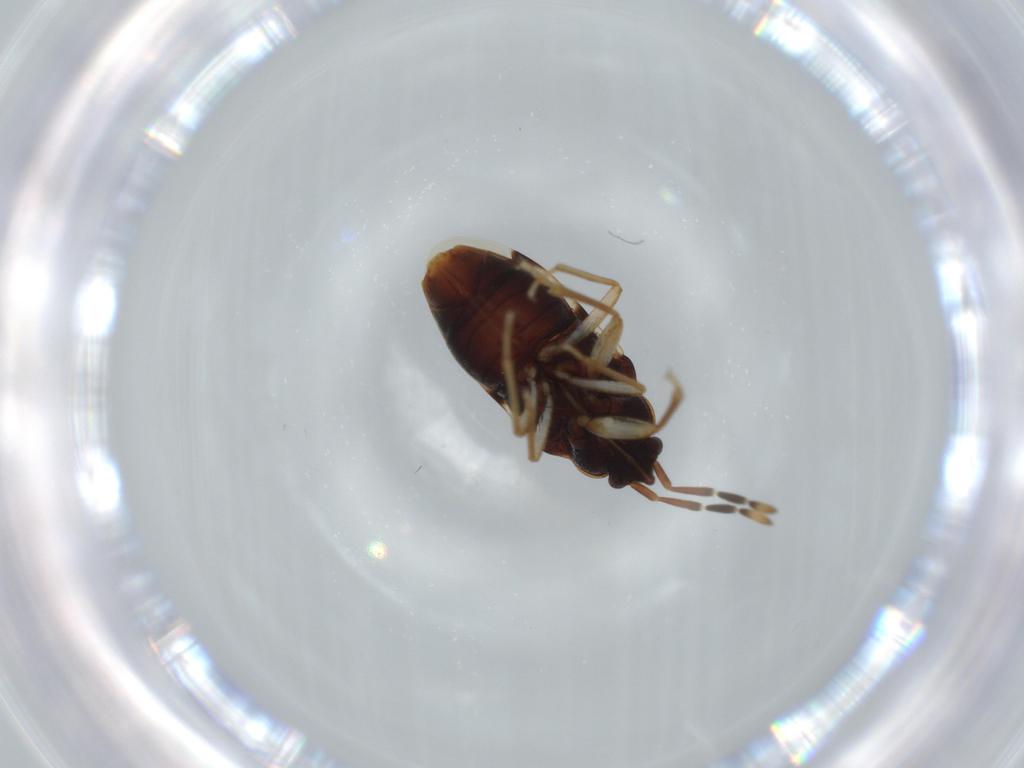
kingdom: Animalia
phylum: Arthropoda
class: Insecta
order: Hemiptera
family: Rhyparochromidae
